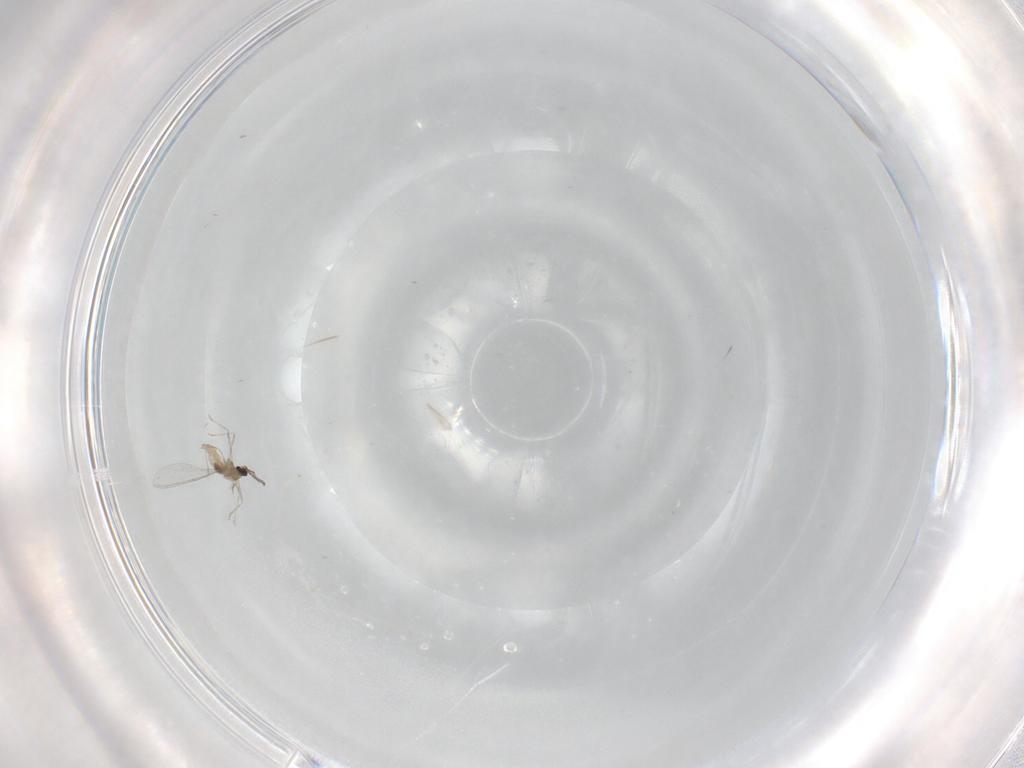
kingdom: Animalia
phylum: Arthropoda
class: Insecta
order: Diptera
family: Cecidomyiidae
